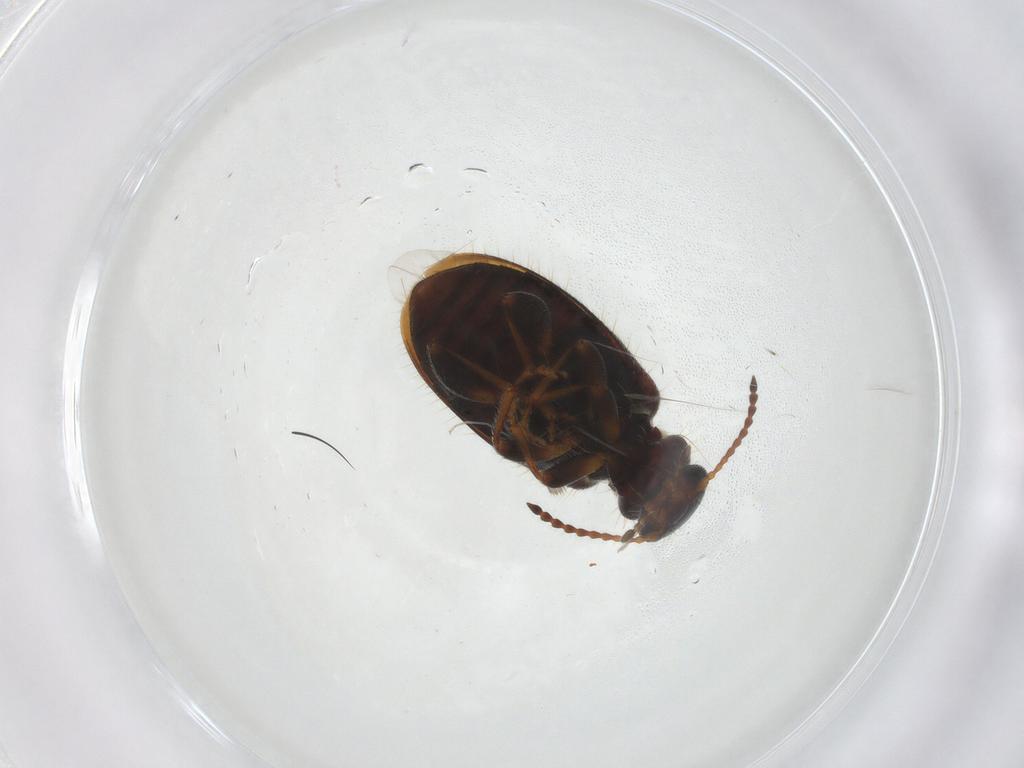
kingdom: Animalia
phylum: Arthropoda
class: Insecta
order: Coleoptera
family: Anthicidae
